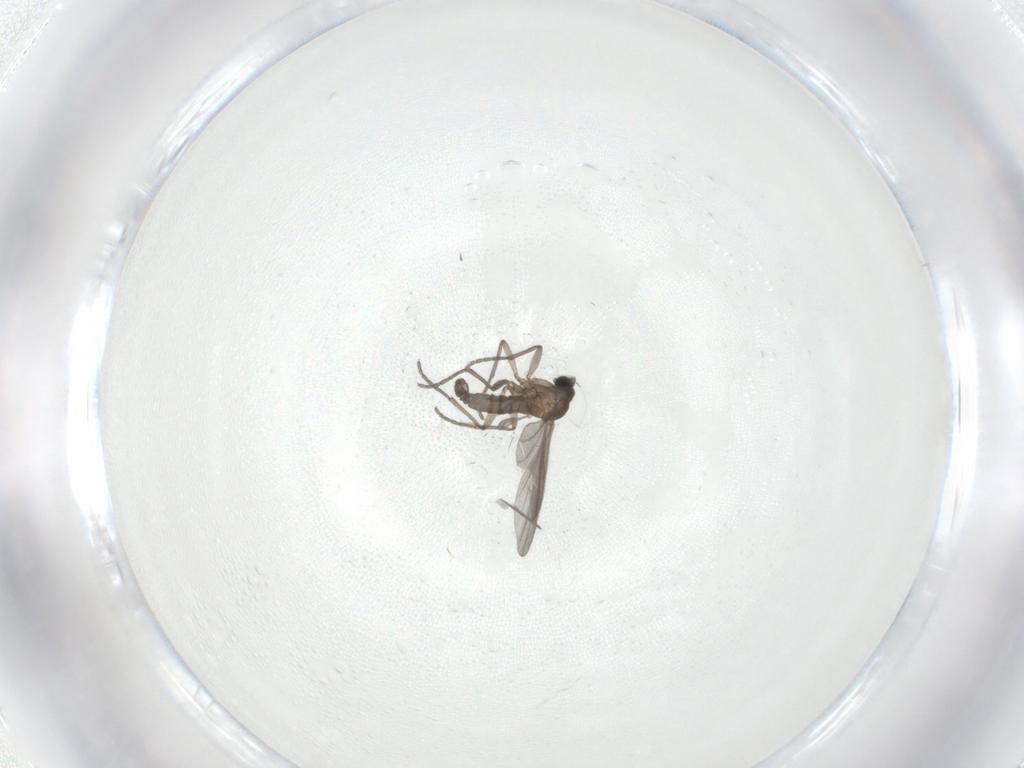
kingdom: Animalia
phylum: Arthropoda
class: Insecta
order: Diptera
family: Sciaridae
